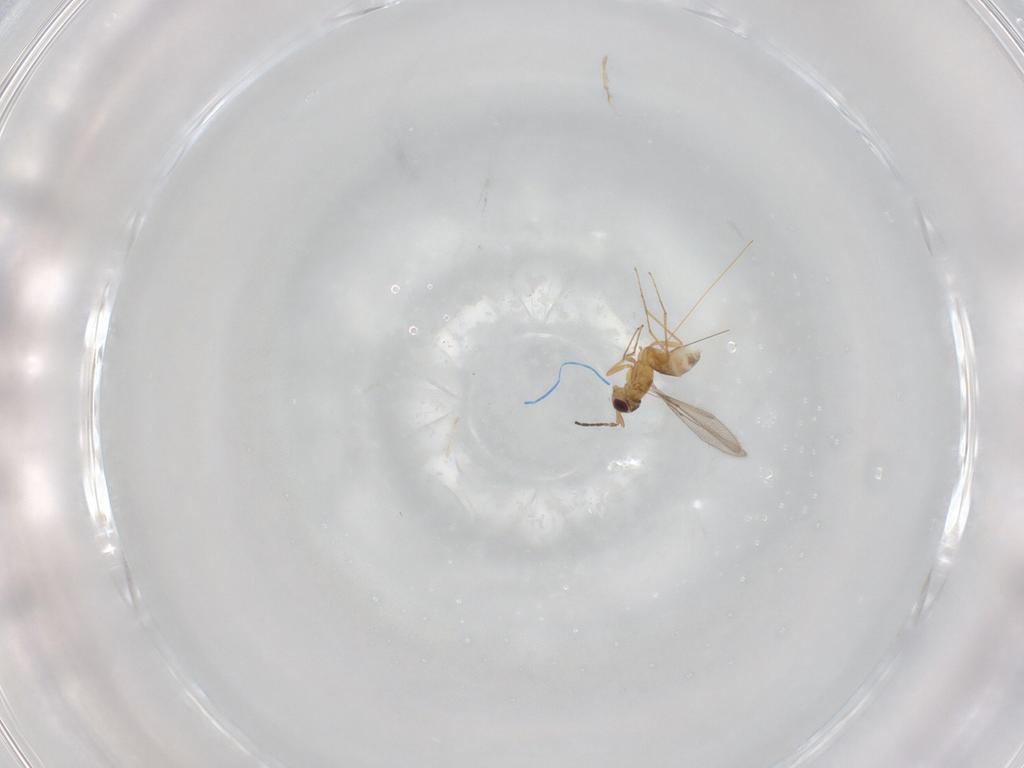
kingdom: Animalia
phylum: Arthropoda
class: Insecta
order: Hymenoptera
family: Mymaridae
